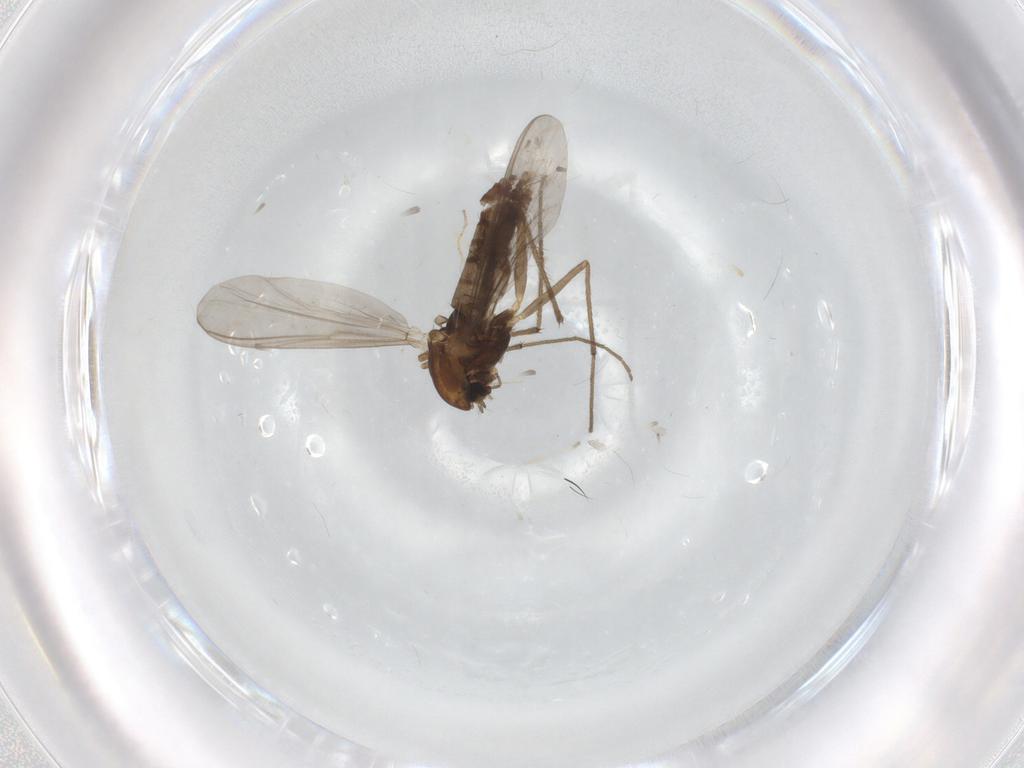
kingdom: Animalia
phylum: Arthropoda
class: Insecta
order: Diptera
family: Chironomidae
